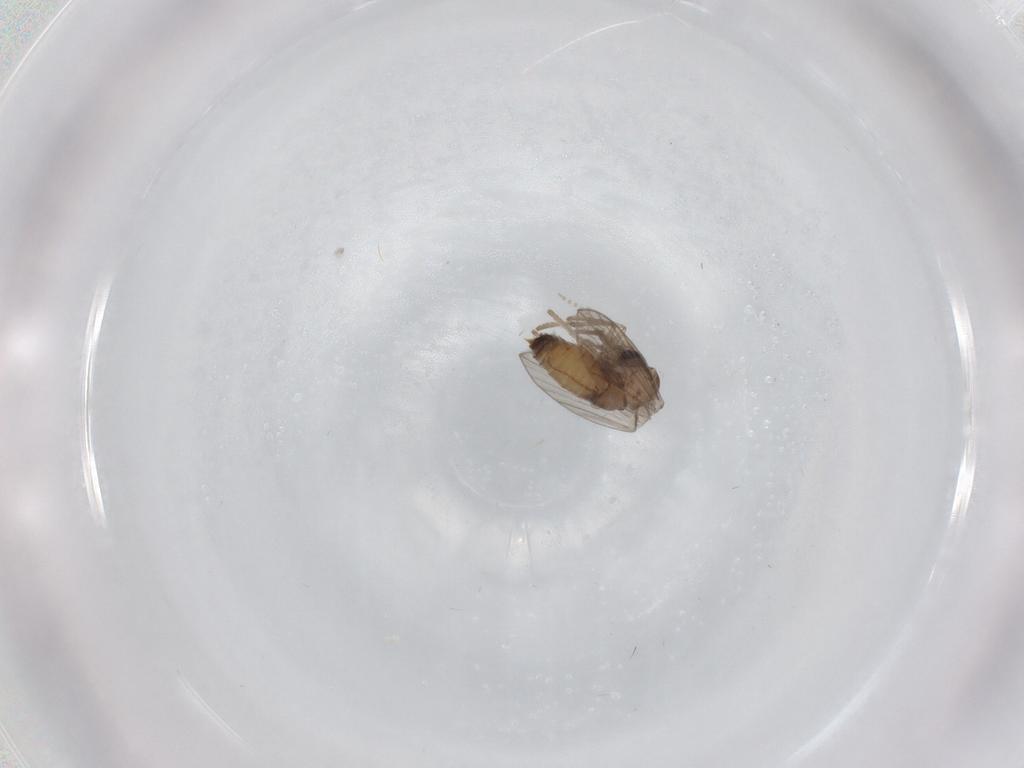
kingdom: Animalia
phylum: Arthropoda
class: Insecta
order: Diptera
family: Psychodidae
